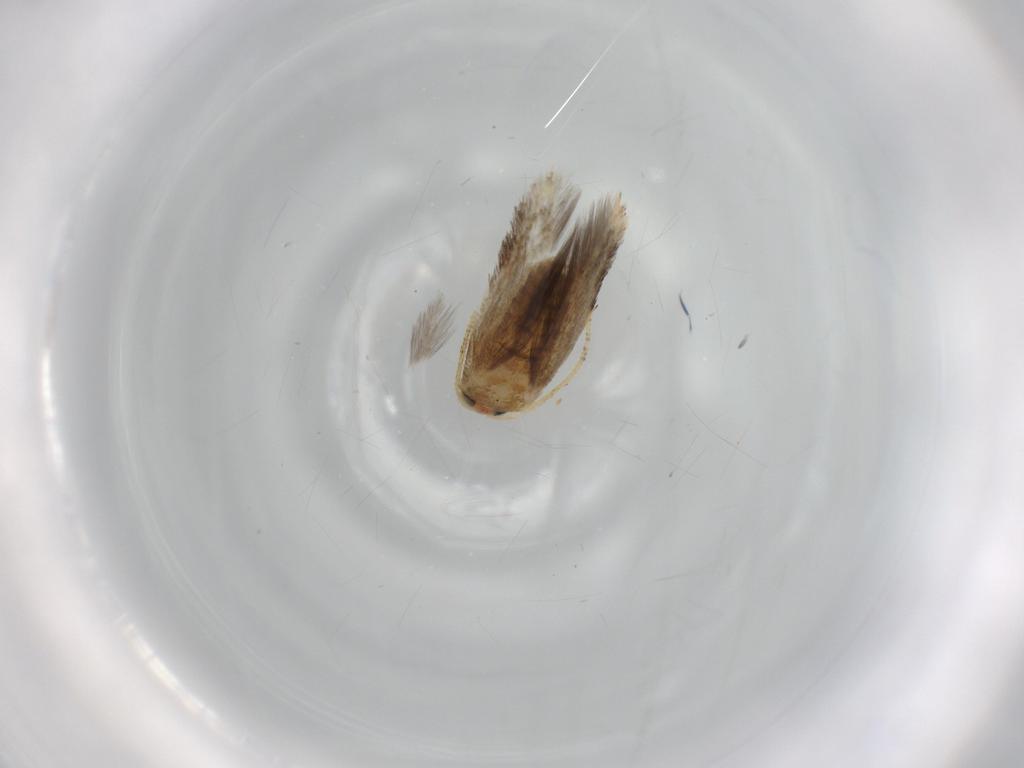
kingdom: Animalia
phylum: Arthropoda
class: Insecta
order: Lepidoptera
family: Nepticulidae
